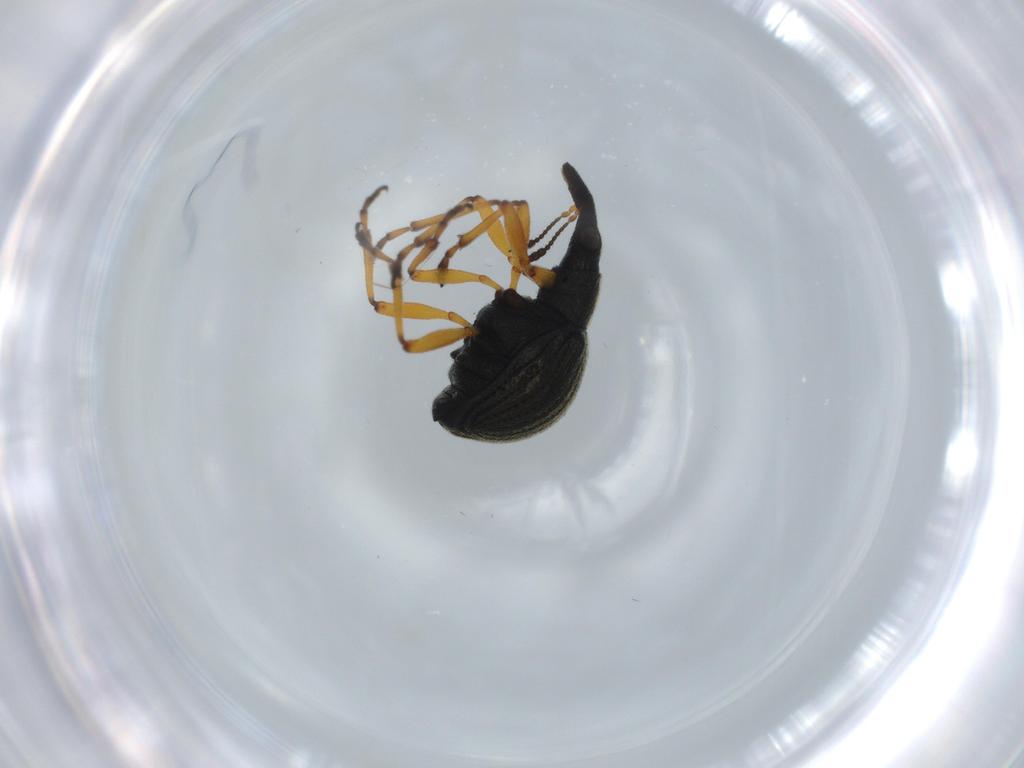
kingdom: Animalia
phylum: Arthropoda
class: Insecta
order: Coleoptera
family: Brentidae
